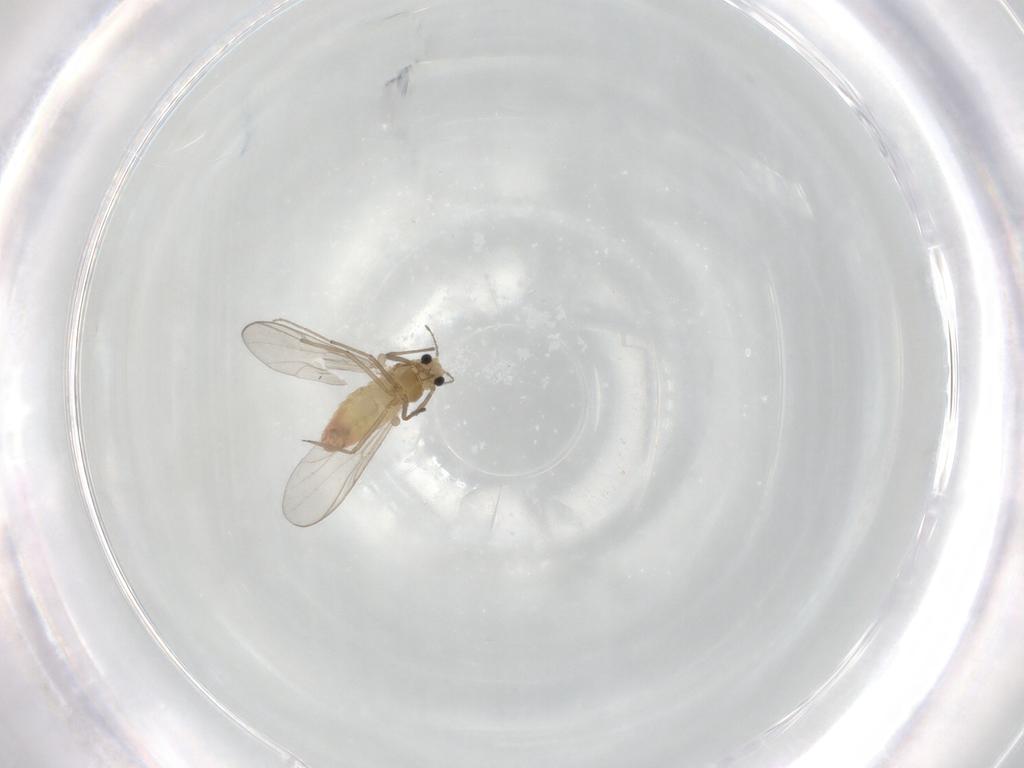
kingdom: Animalia
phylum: Arthropoda
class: Insecta
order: Diptera
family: Chironomidae
